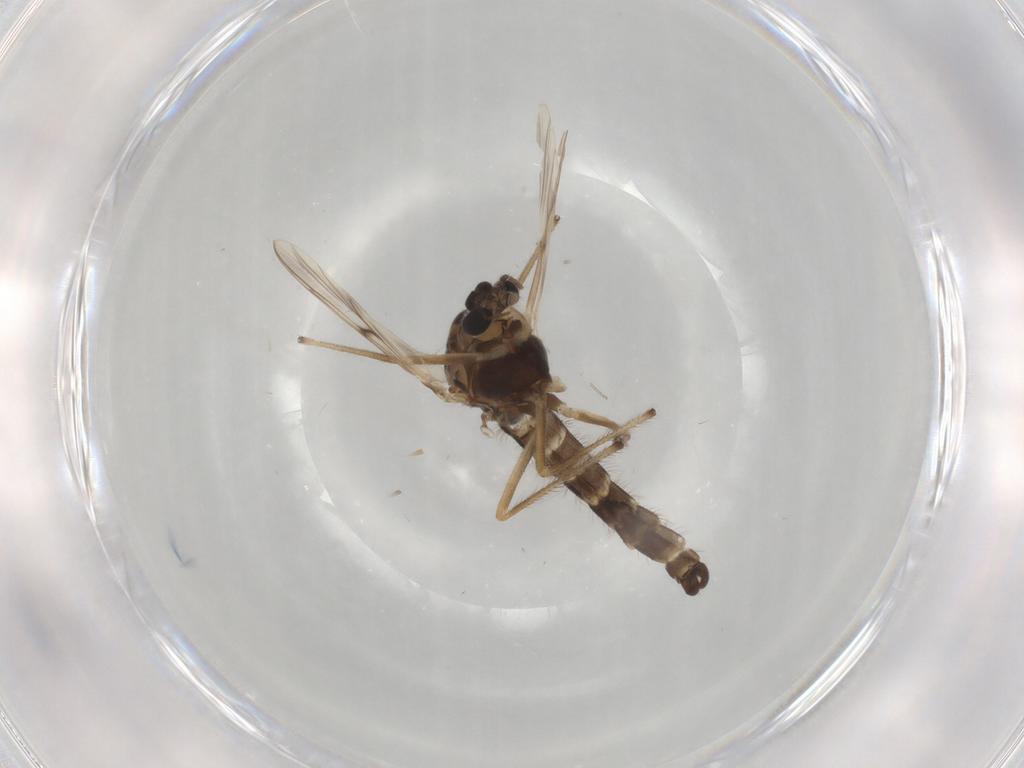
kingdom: Animalia
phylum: Arthropoda
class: Insecta
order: Diptera
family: Chironomidae
